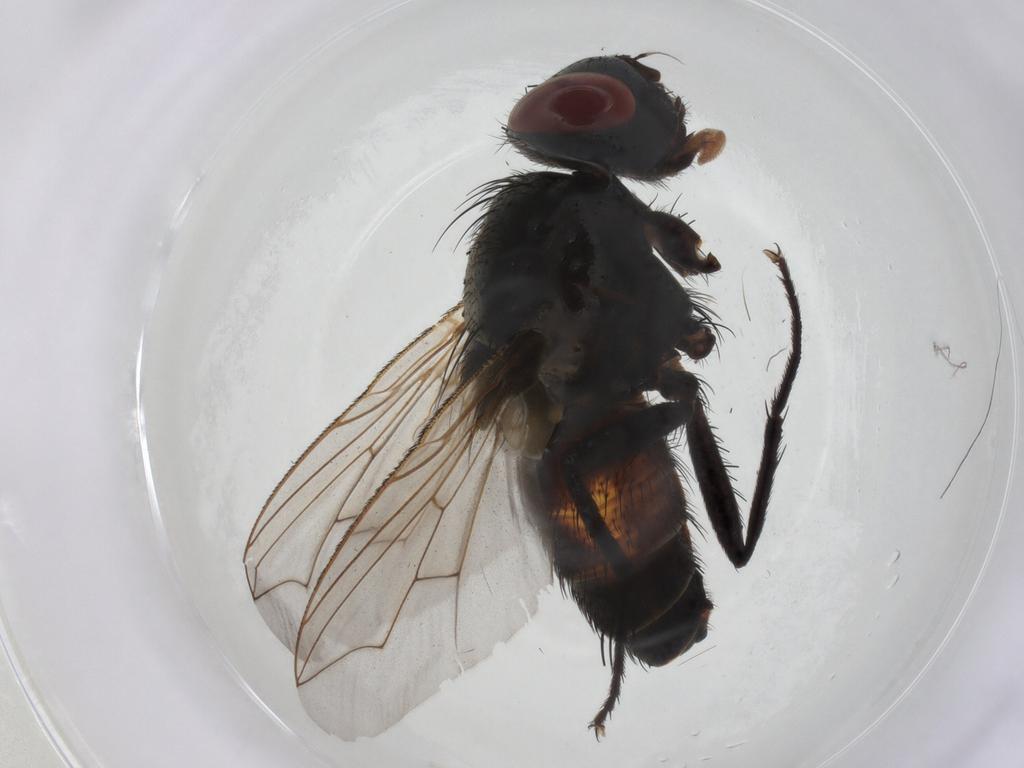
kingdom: Animalia
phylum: Arthropoda
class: Insecta
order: Diptera
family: Sarcophagidae
